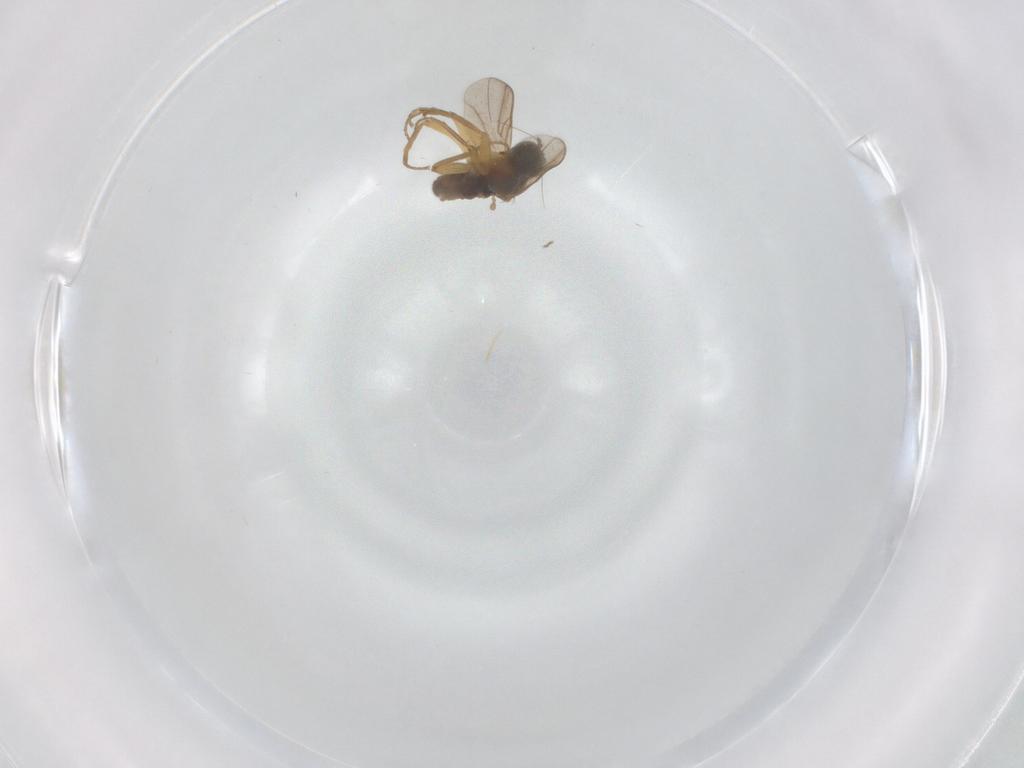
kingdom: Animalia
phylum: Arthropoda
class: Insecta
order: Diptera
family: Hybotidae
